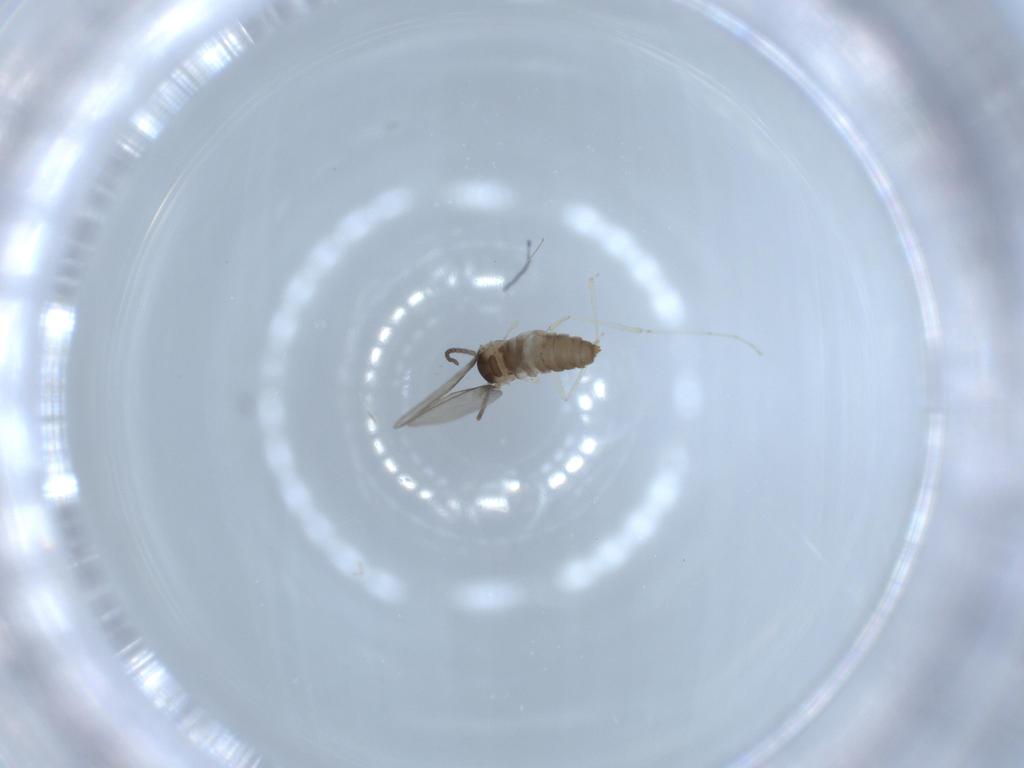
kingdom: Animalia
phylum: Arthropoda
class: Insecta
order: Diptera
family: Cecidomyiidae
